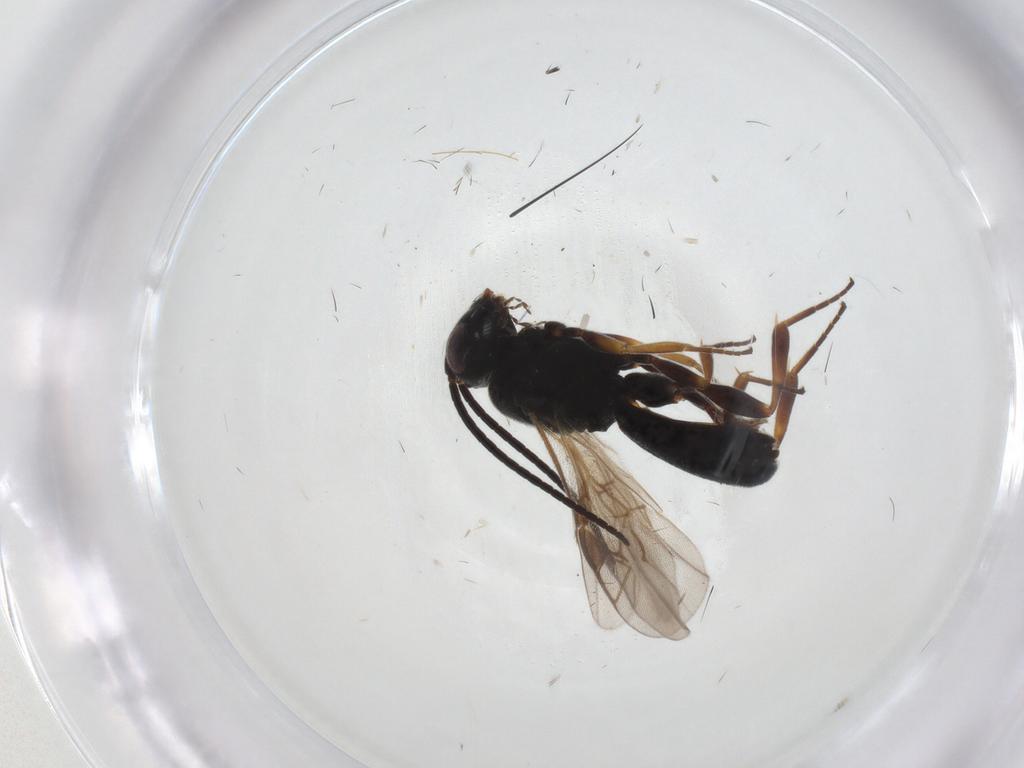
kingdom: Animalia
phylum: Arthropoda
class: Insecta
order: Hymenoptera
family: Braconidae
